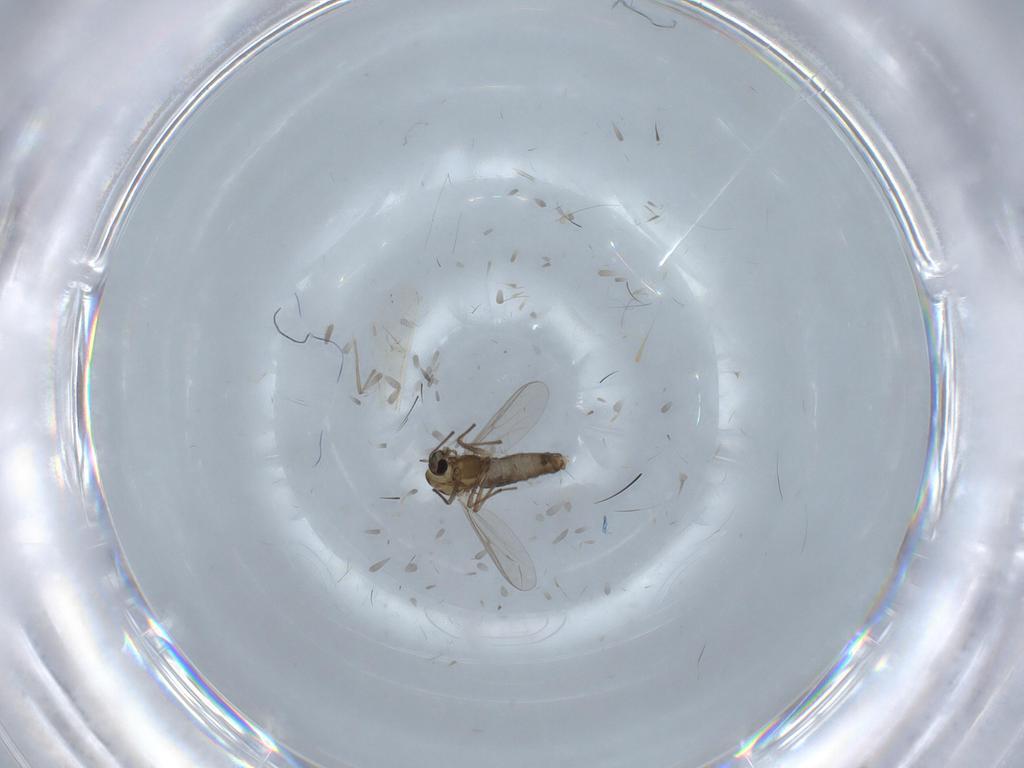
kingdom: Animalia
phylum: Arthropoda
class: Insecta
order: Diptera
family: Chironomidae
